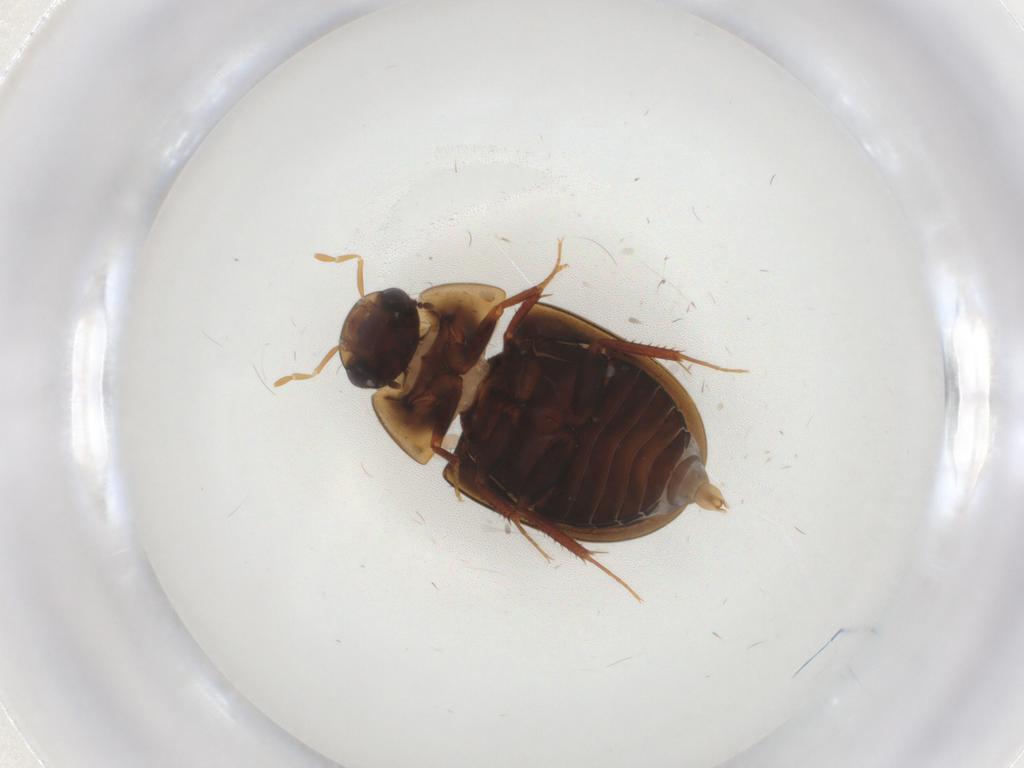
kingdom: Animalia
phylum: Arthropoda
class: Insecta
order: Coleoptera
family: Hydrophilidae
